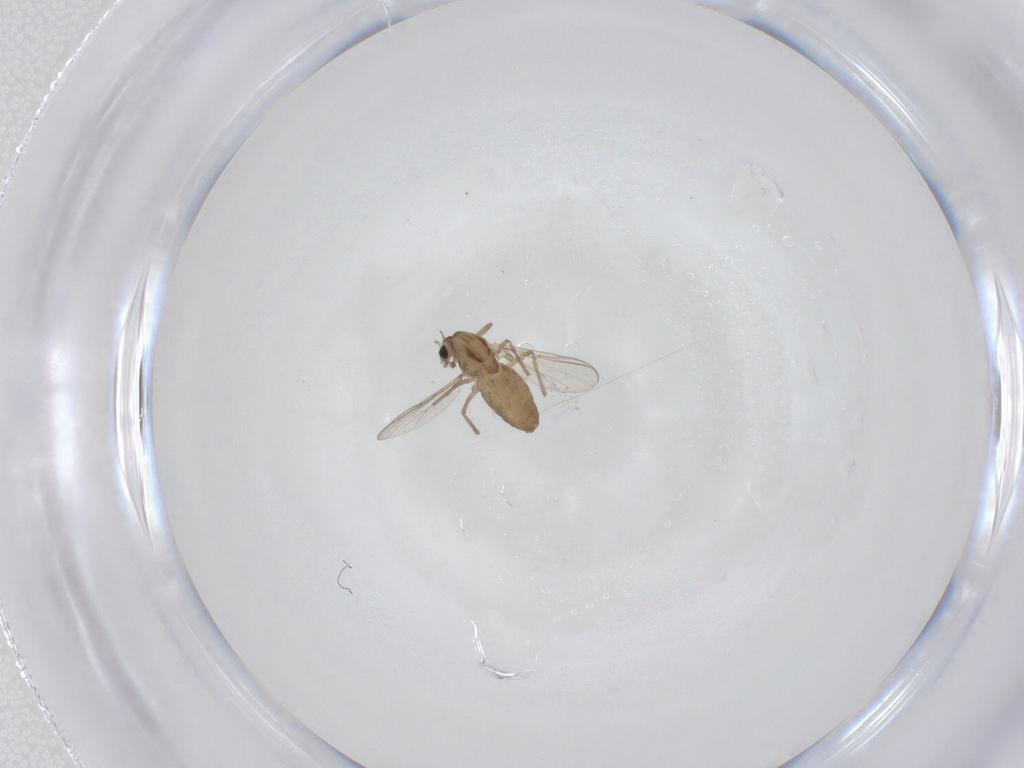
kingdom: Animalia
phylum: Arthropoda
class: Insecta
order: Diptera
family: Chironomidae
